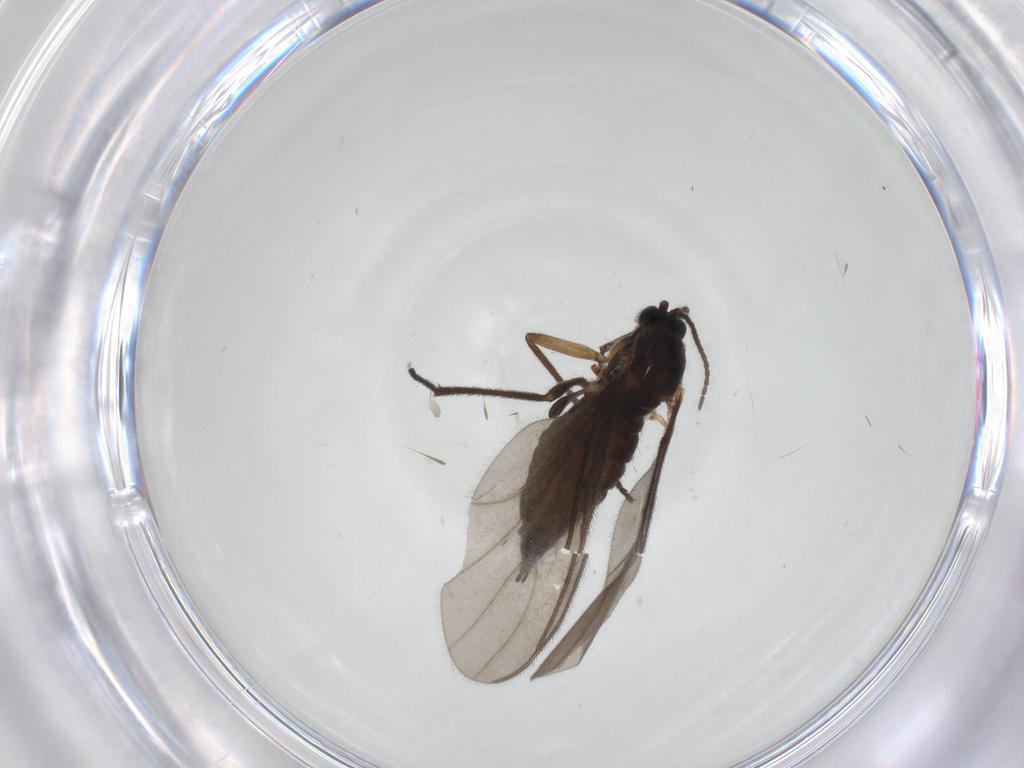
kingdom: Animalia
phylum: Arthropoda
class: Insecta
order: Diptera
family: Sciaridae
